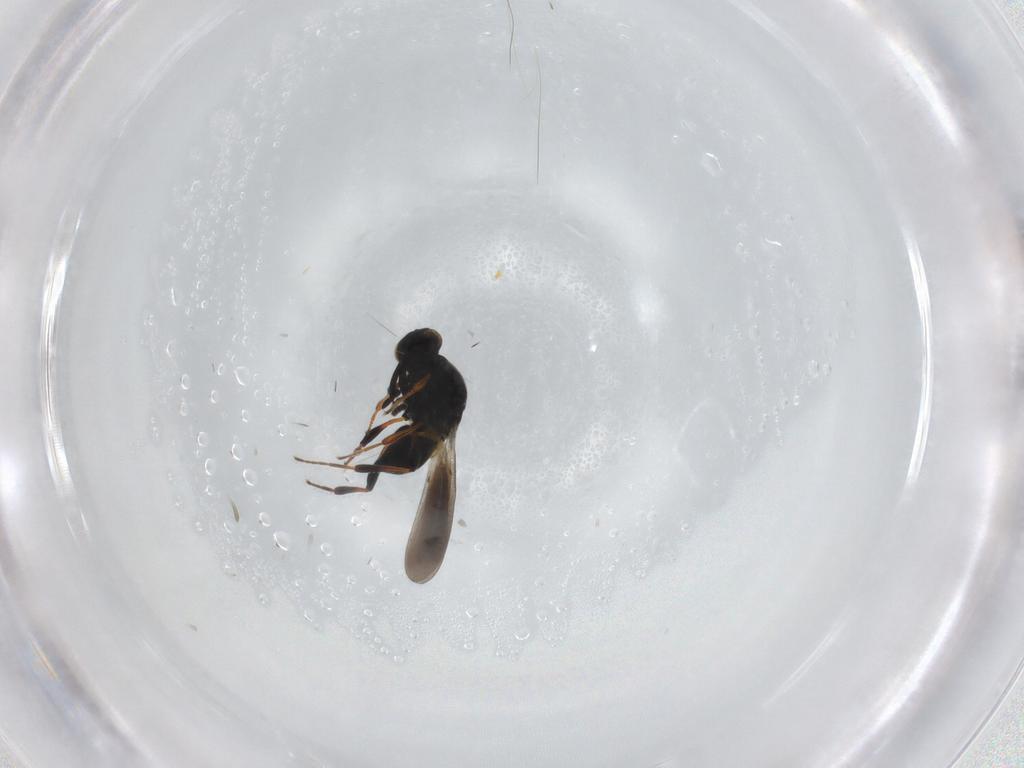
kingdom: Animalia
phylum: Arthropoda
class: Insecta
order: Hymenoptera
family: Platygastridae
